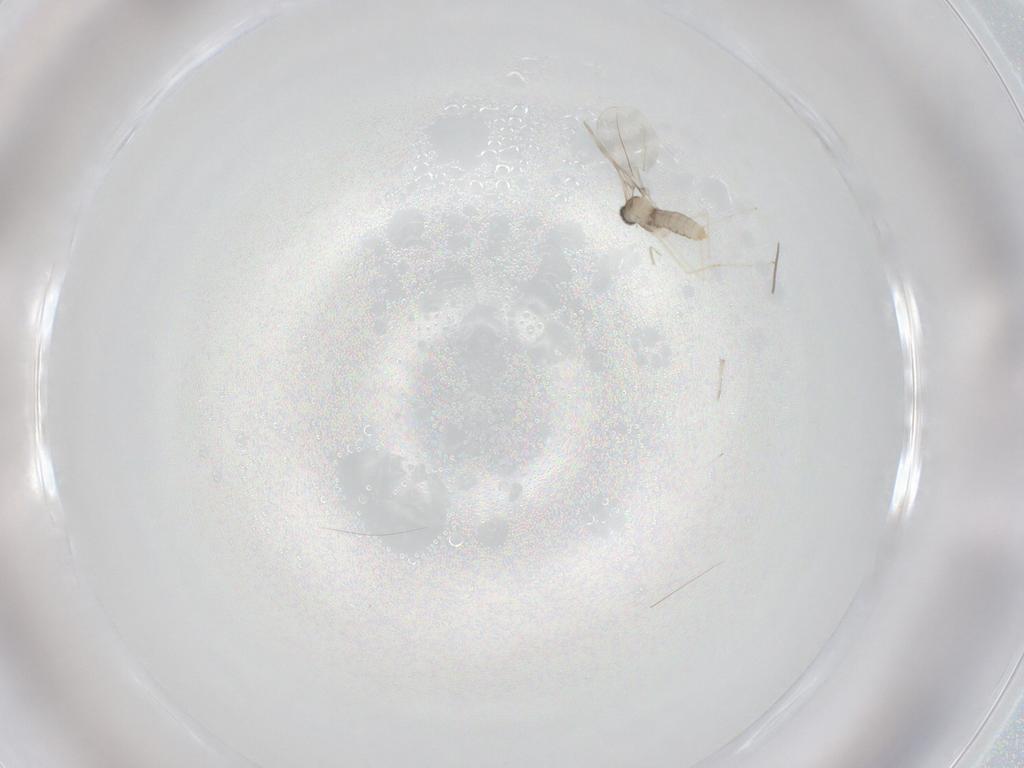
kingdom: Animalia
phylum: Arthropoda
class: Insecta
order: Diptera
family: Cecidomyiidae
